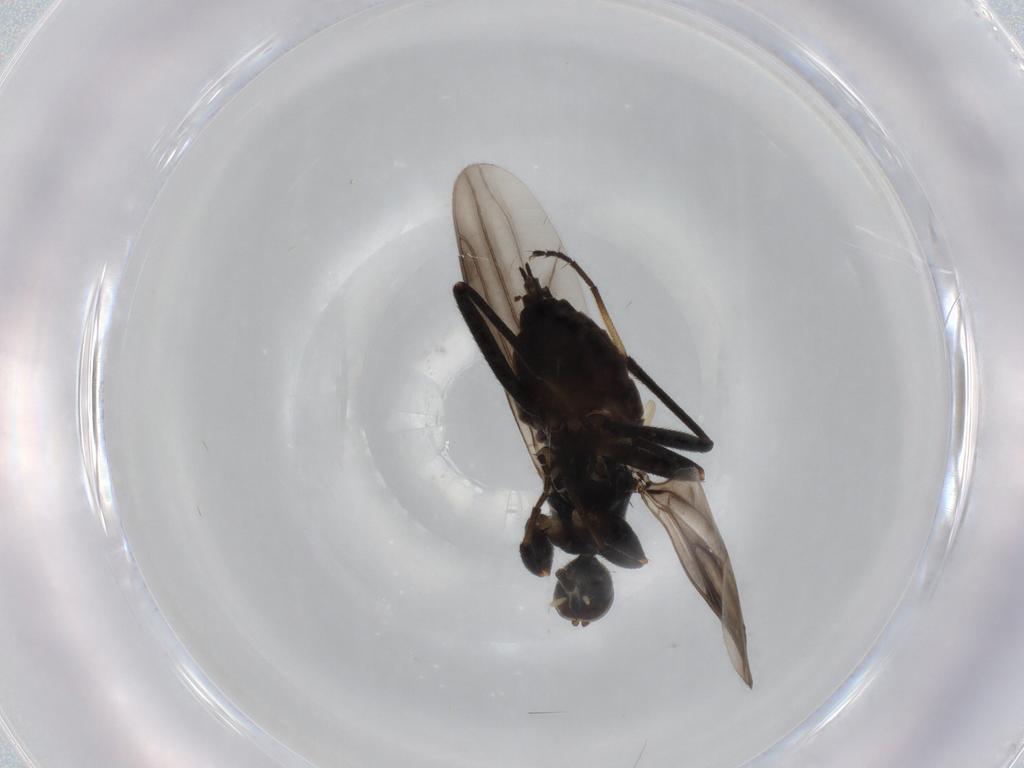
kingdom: Animalia
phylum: Arthropoda
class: Insecta
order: Diptera
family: Hybotidae
